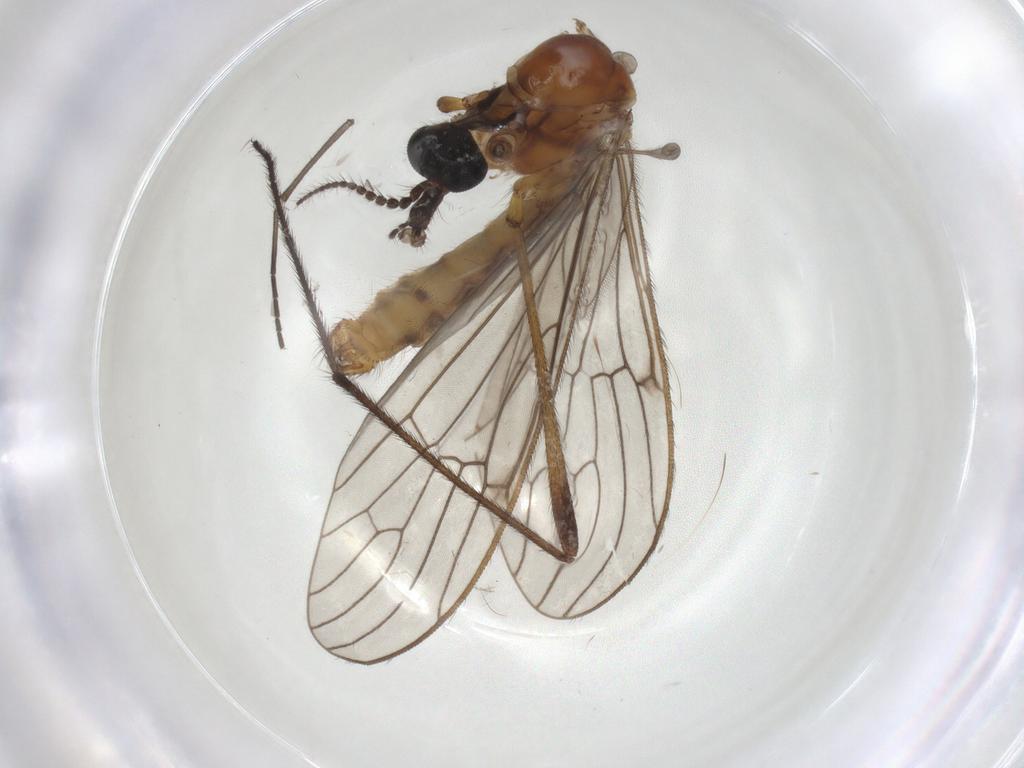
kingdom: Animalia
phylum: Arthropoda
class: Insecta
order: Diptera
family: Limoniidae
